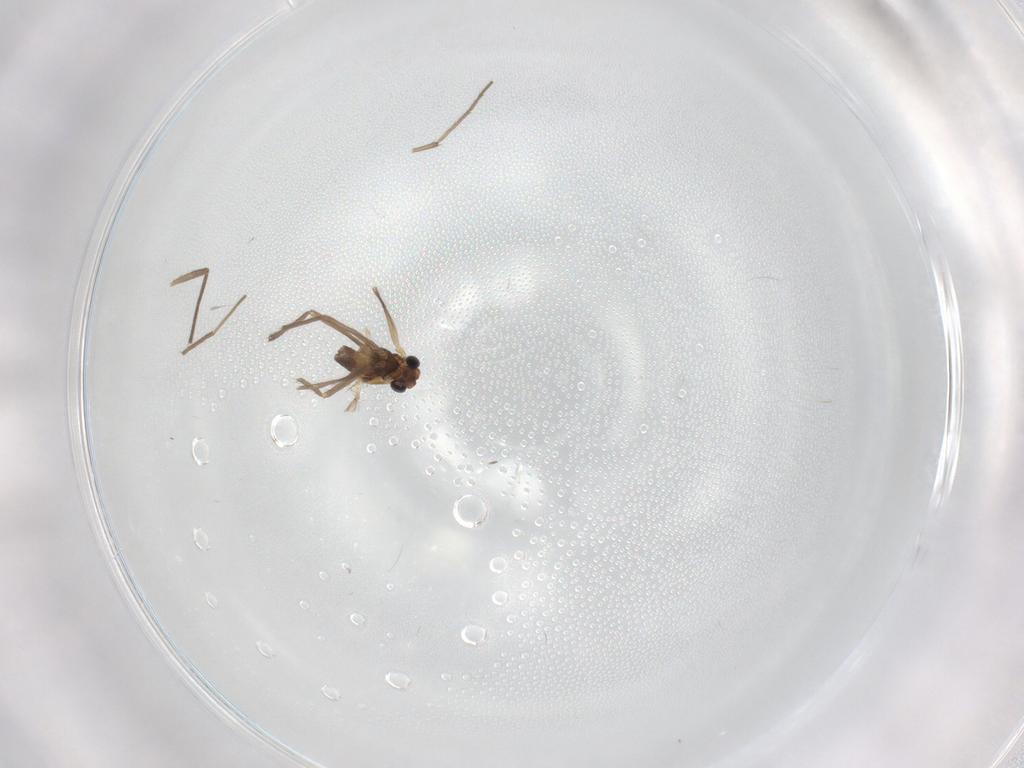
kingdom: Animalia
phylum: Arthropoda
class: Insecta
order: Diptera
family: Chironomidae
